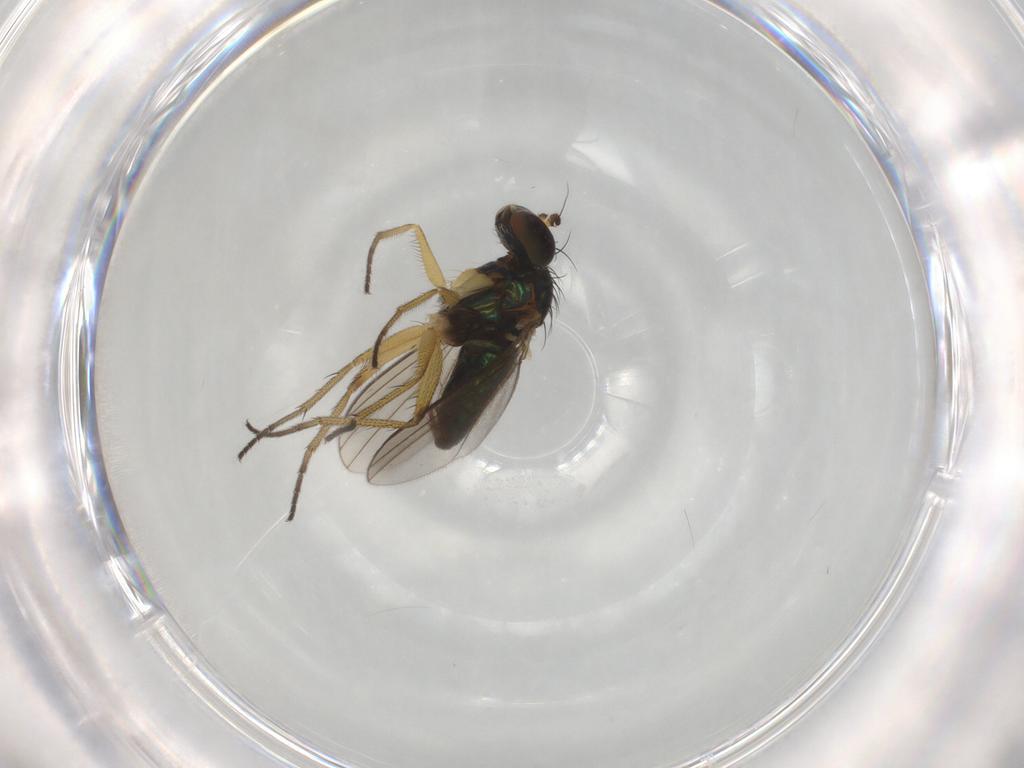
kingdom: Animalia
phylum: Arthropoda
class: Insecta
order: Diptera
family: Dolichopodidae
